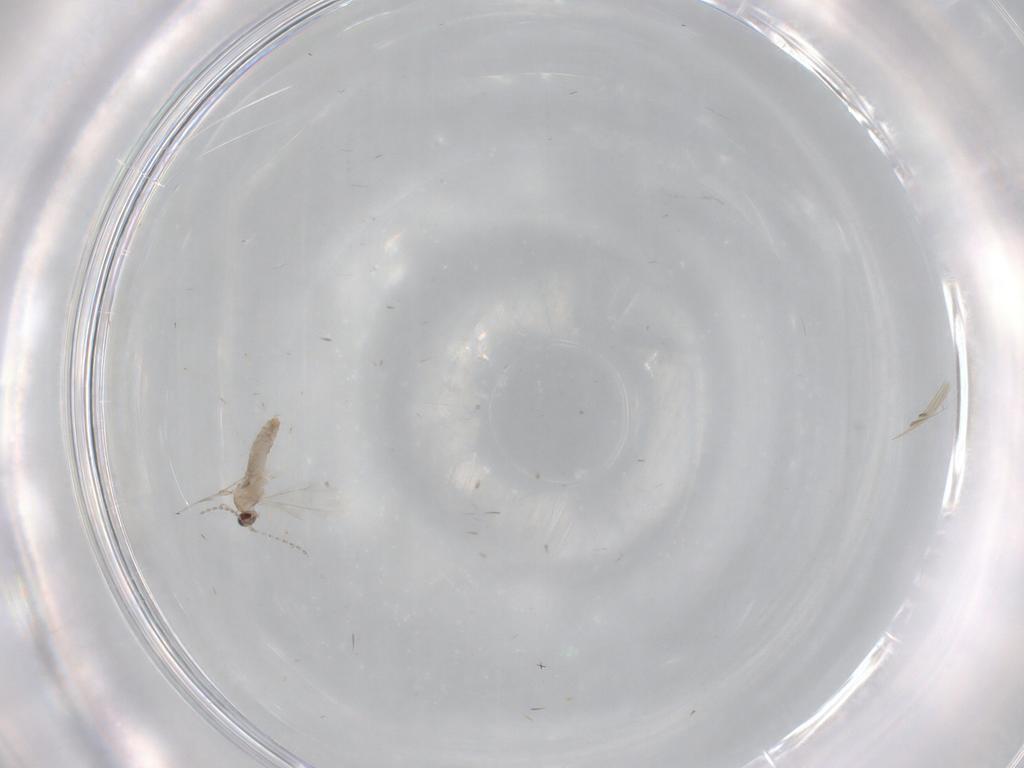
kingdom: Animalia
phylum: Arthropoda
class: Insecta
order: Diptera
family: Cecidomyiidae
